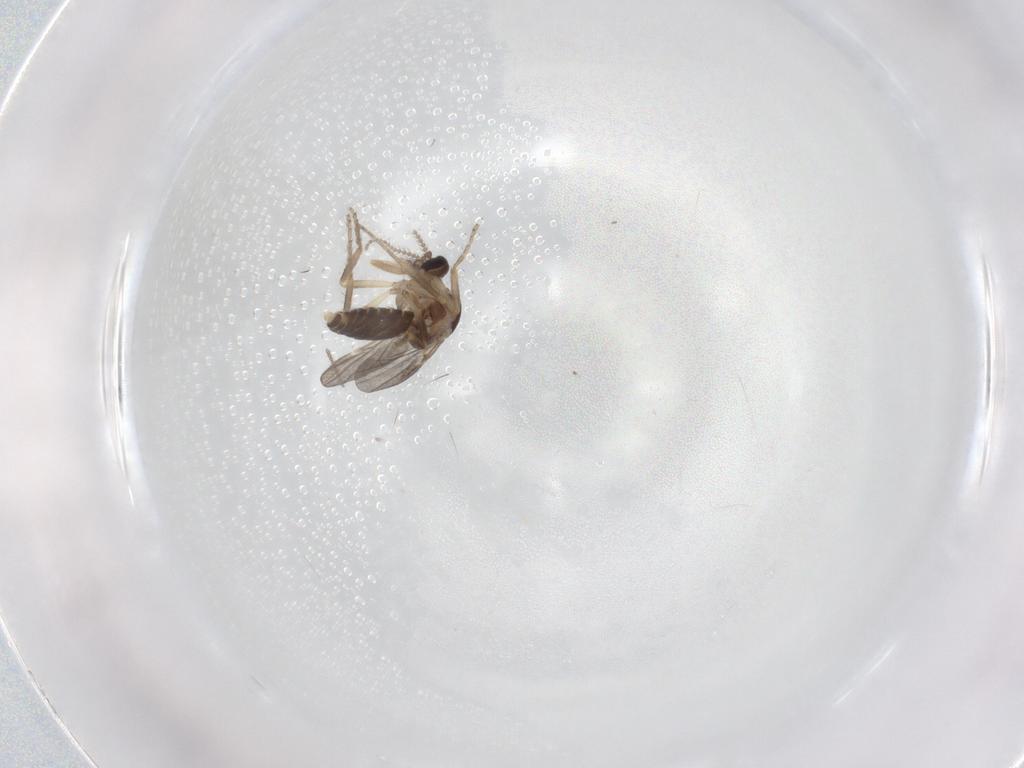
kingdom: Animalia
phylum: Arthropoda
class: Insecta
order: Diptera
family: Ceratopogonidae
